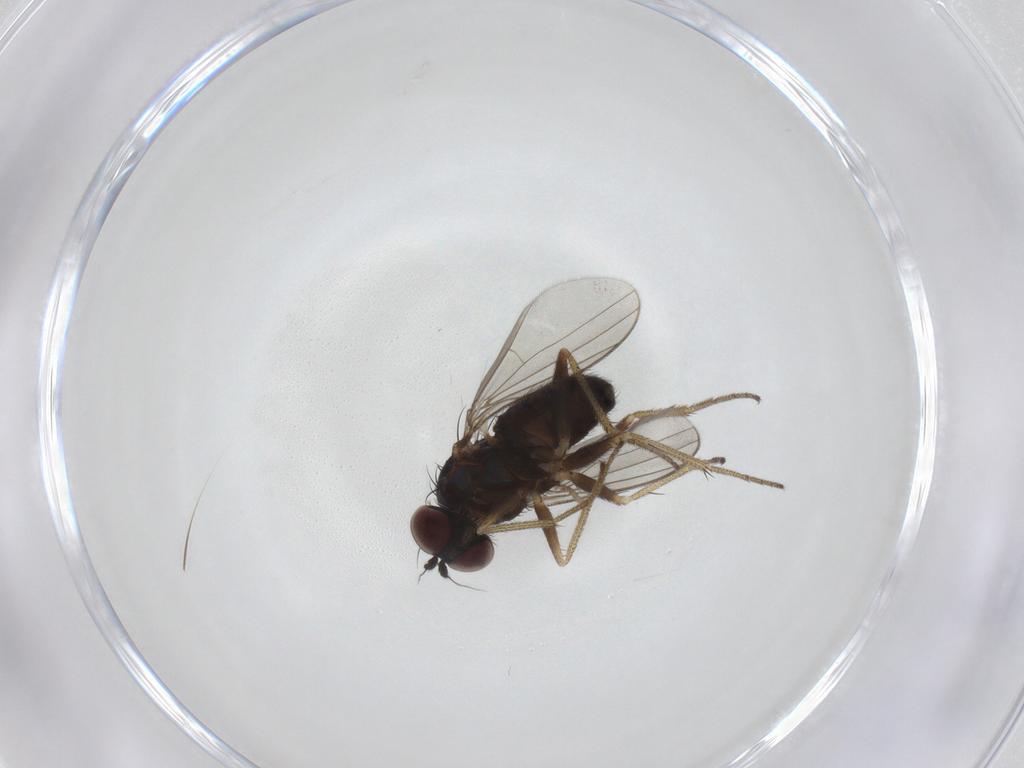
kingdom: Animalia
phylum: Arthropoda
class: Insecta
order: Diptera
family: Dolichopodidae
